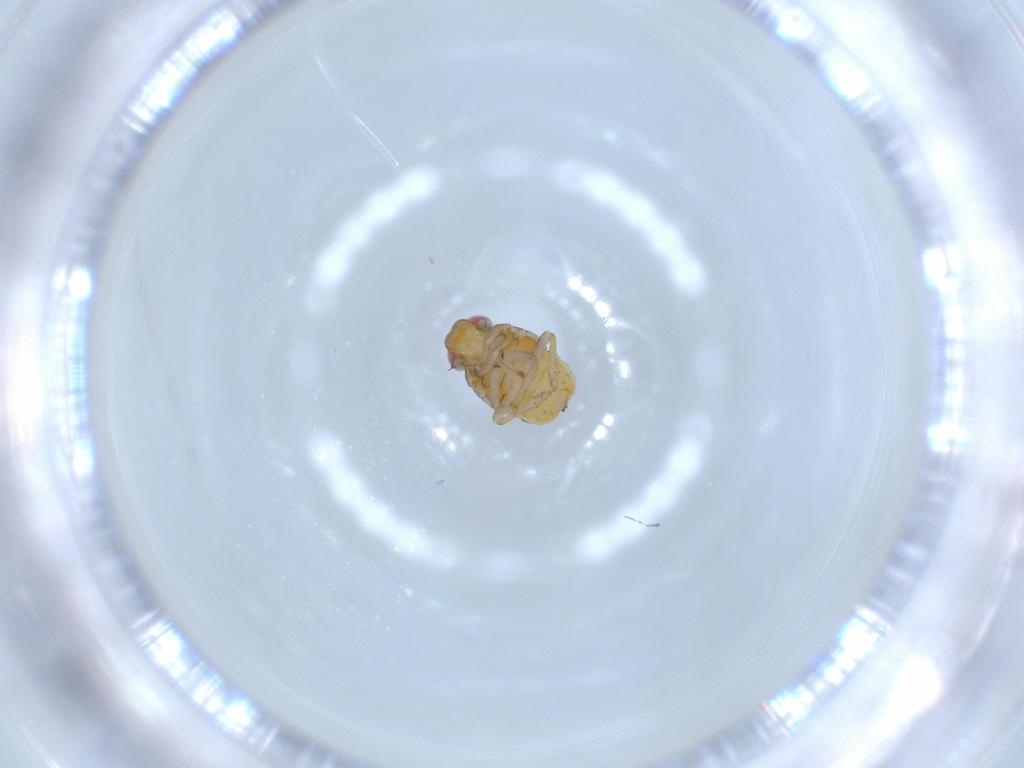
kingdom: Animalia
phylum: Arthropoda
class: Insecta
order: Hemiptera
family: Issidae
